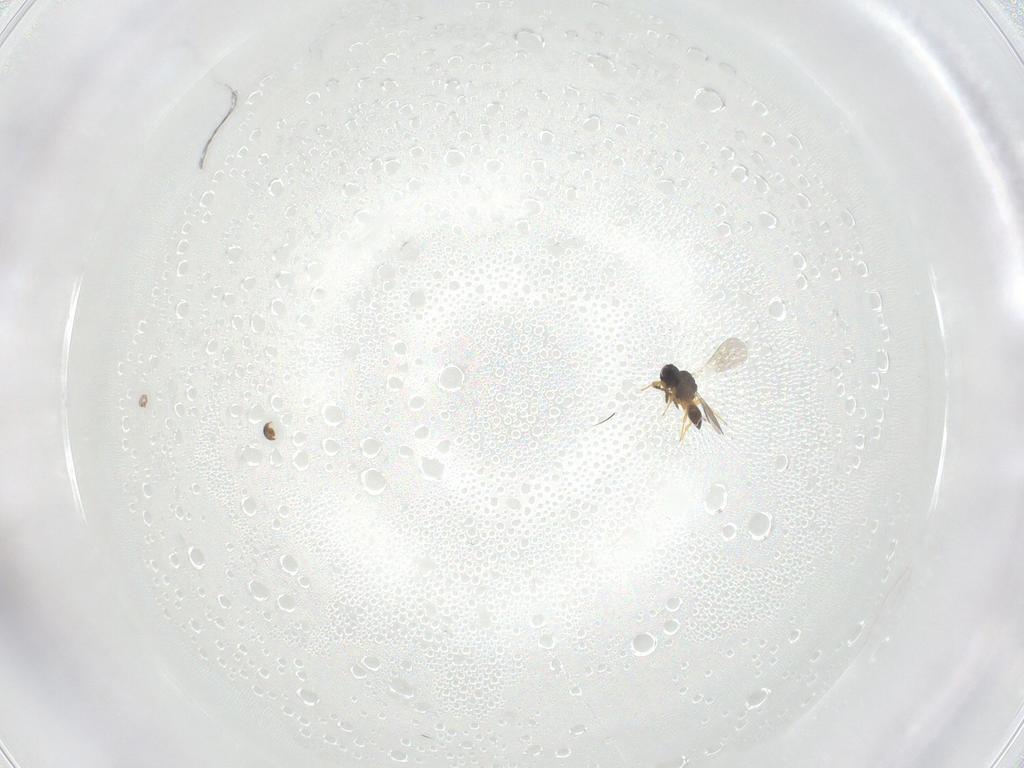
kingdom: Animalia
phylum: Arthropoda
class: Insecta
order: Hymenoptera
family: Platygastridae
